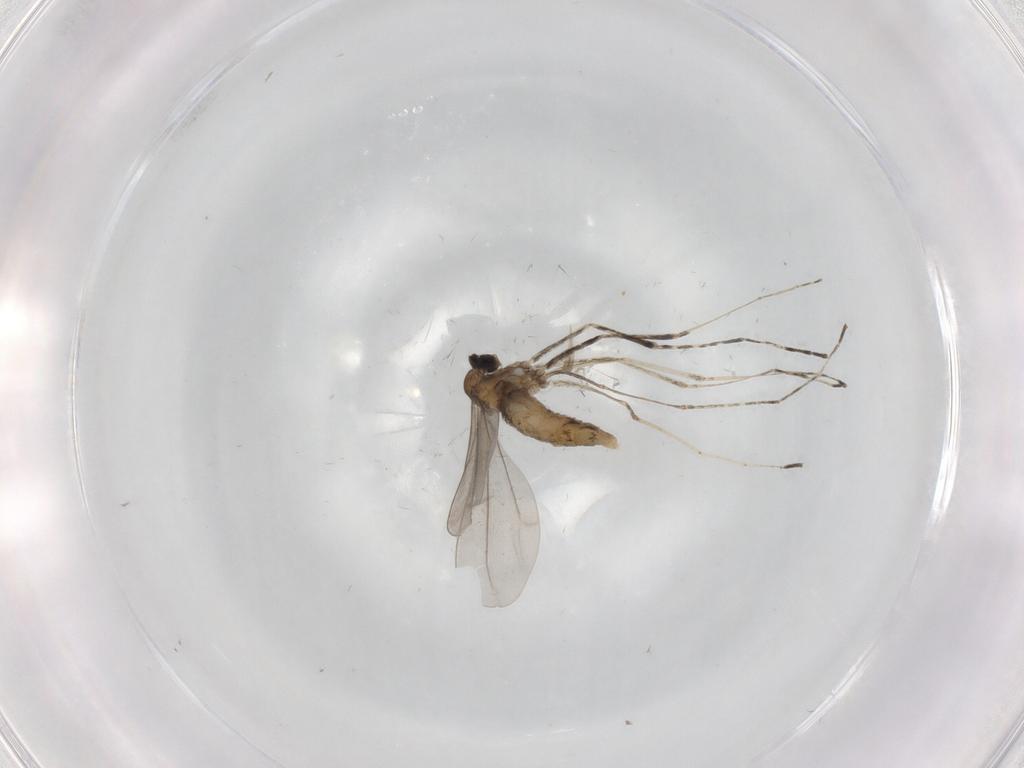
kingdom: Animalia
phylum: Arthropoda
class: Insecta
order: Diptera
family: Cecidomyiidae
